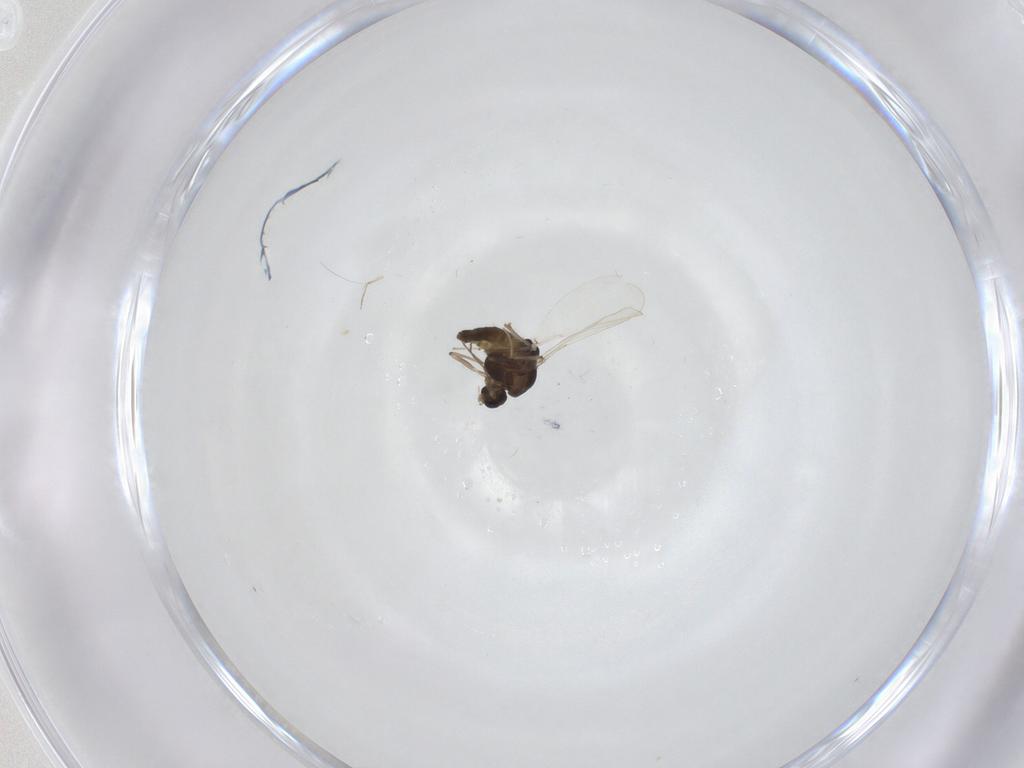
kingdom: Animalia
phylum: Arthropoda
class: Insecta
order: Diptera
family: Chironomidae
